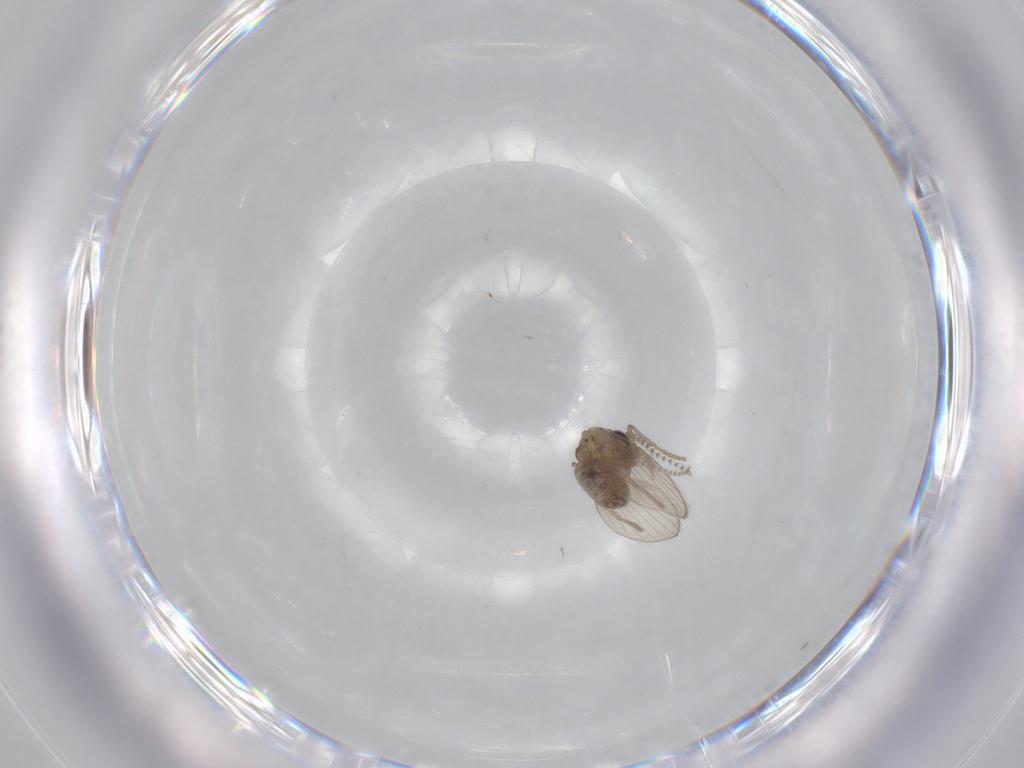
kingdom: Animalia
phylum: Arthropoda
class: Insecta
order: Diptera
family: Psychodidae
